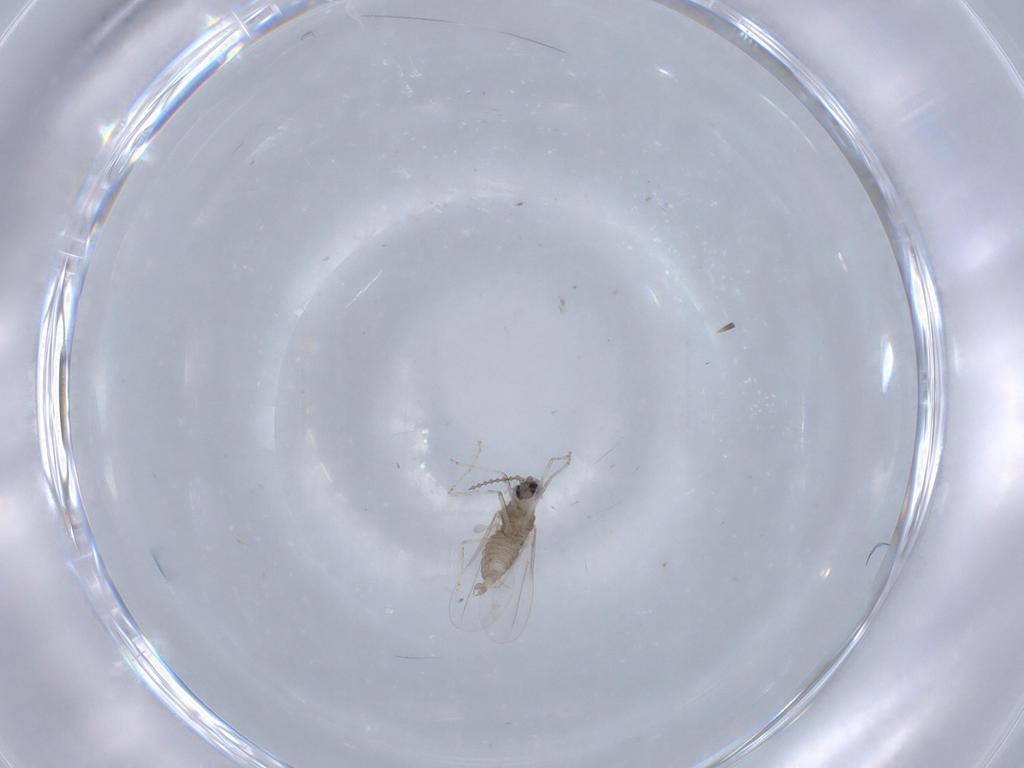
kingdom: Animalia
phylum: Arthropoda
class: Insecta
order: Diptera
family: Cecidomyiidae
